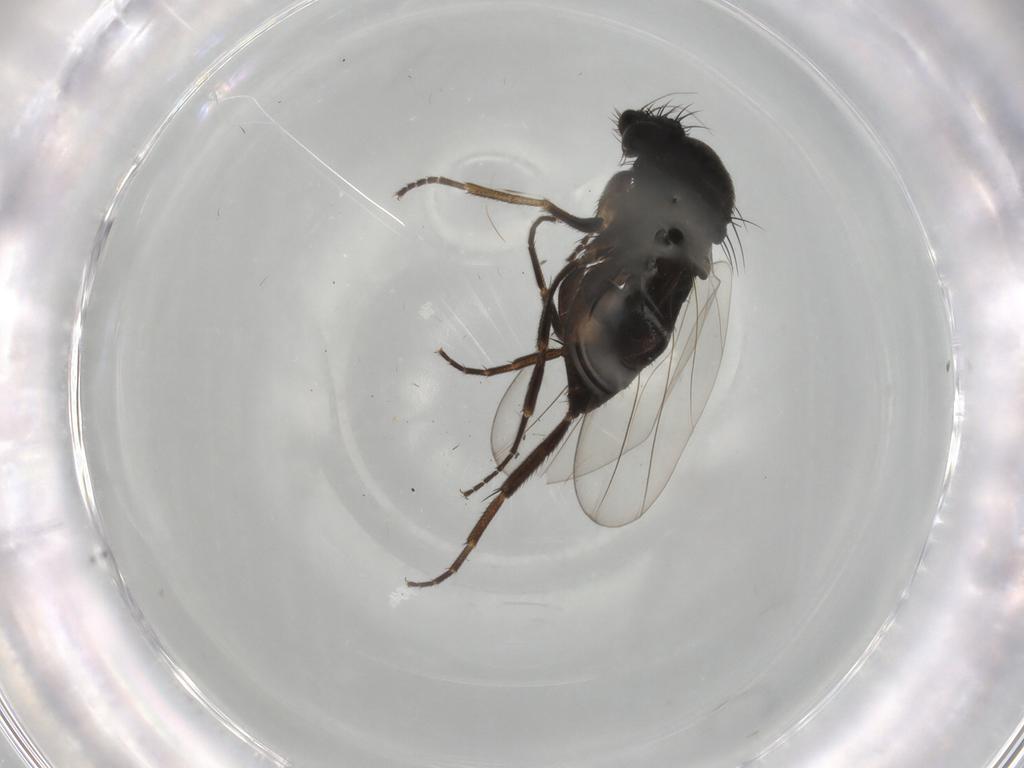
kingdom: Animalia
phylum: Arthropoda
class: Insecta
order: Diptera
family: Phoridae
